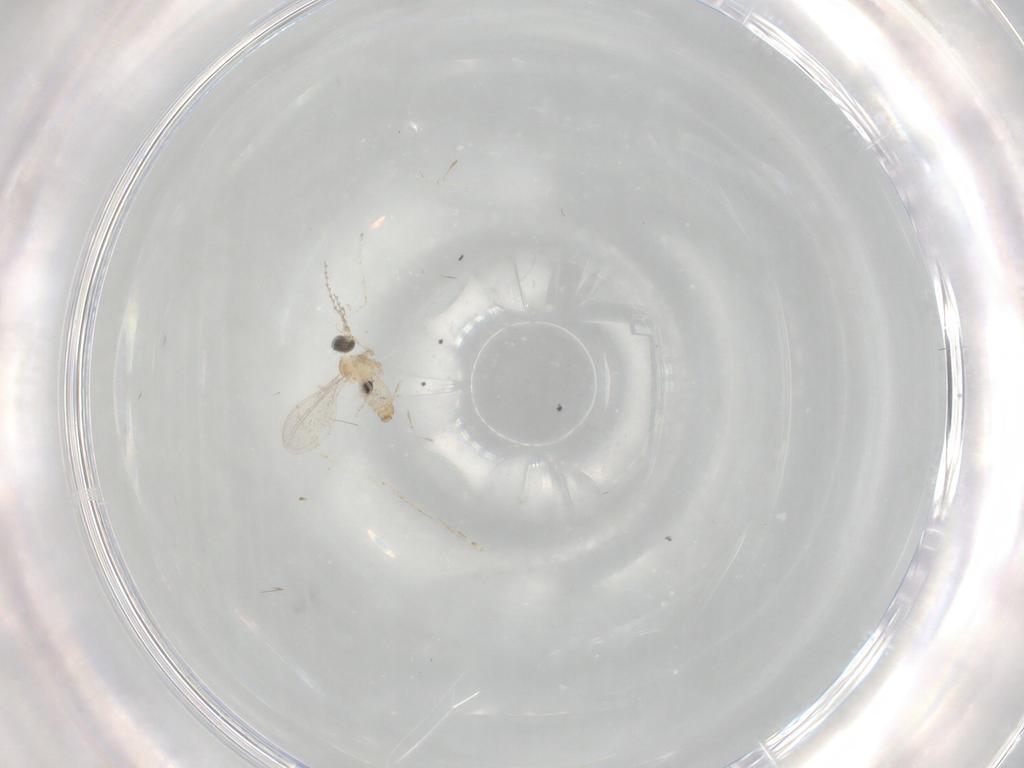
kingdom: Animalia
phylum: Arthropoda
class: Insecta
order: Diptera
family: Cecidomyiidae
